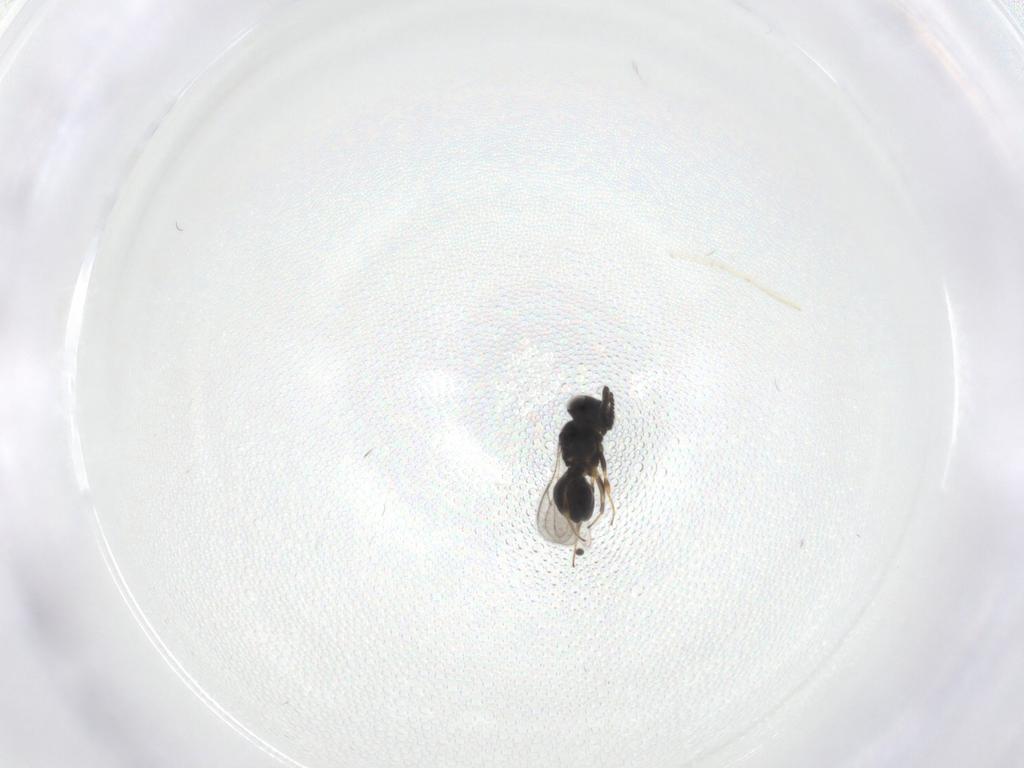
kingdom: Animalia
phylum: Arthropoda
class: Insecta
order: Hymenoptera
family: Scelionidae
